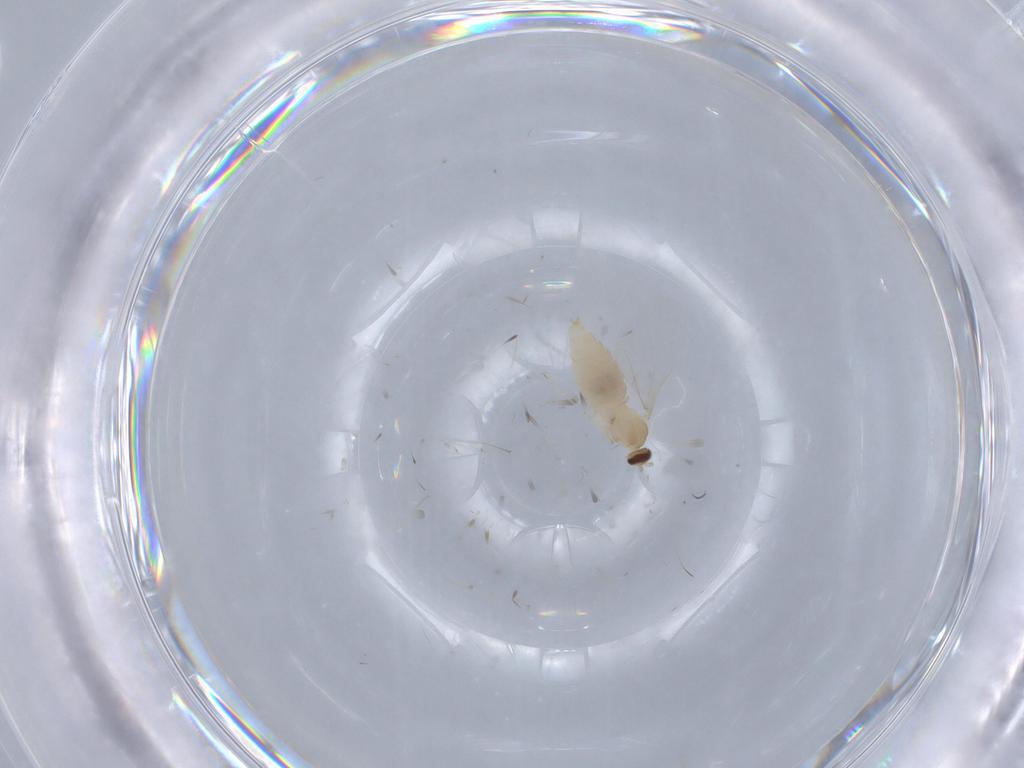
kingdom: Animalia
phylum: Arthropoda
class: Insecta
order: Diptera
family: Cecidomyiidae
